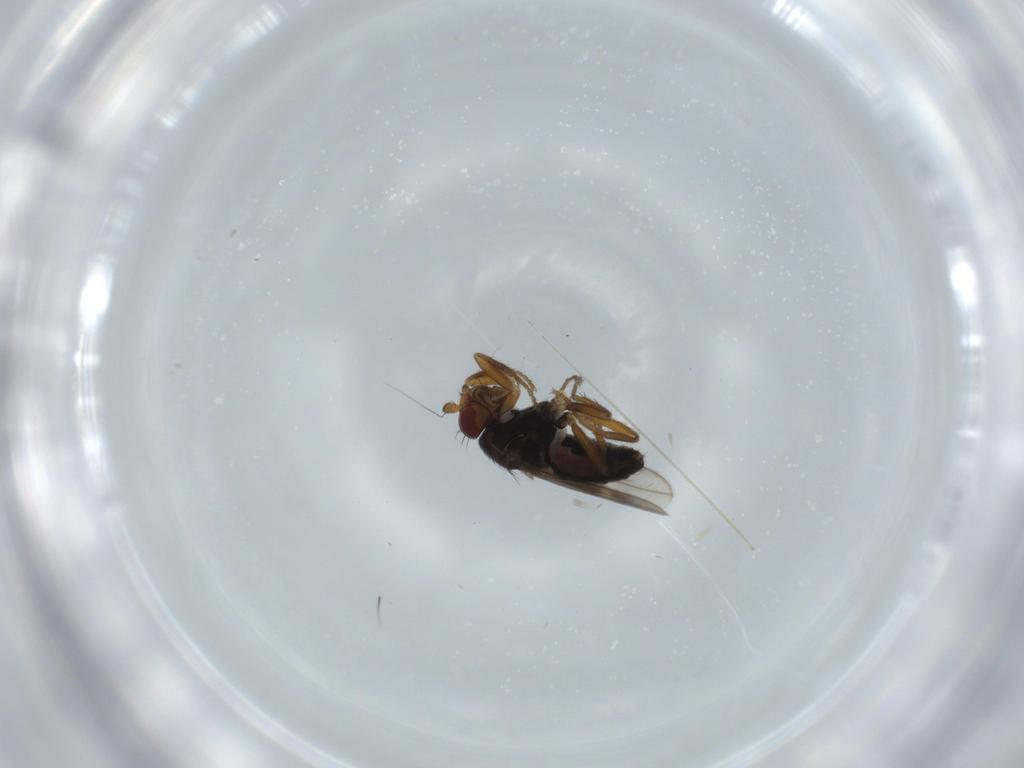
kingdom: Animalia
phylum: Arthropoda
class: Insecta
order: Diptera
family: Sphaeroceridae
